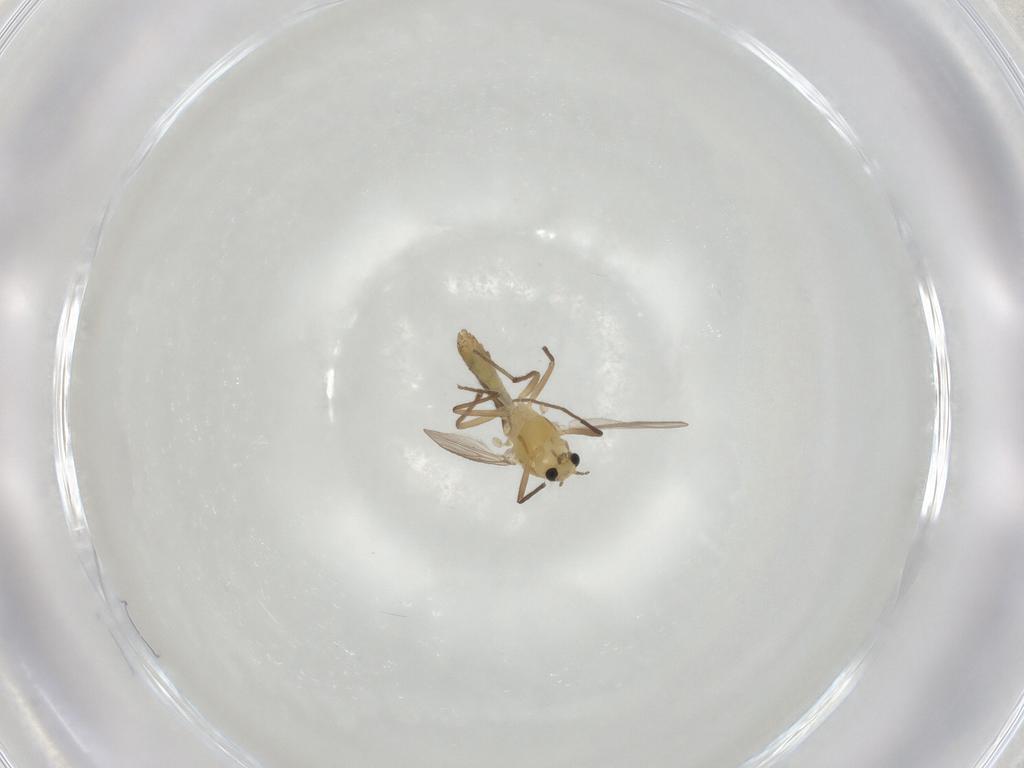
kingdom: Animalia
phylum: Arthropoda
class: Insecta
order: Diptera
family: Chironomidae
